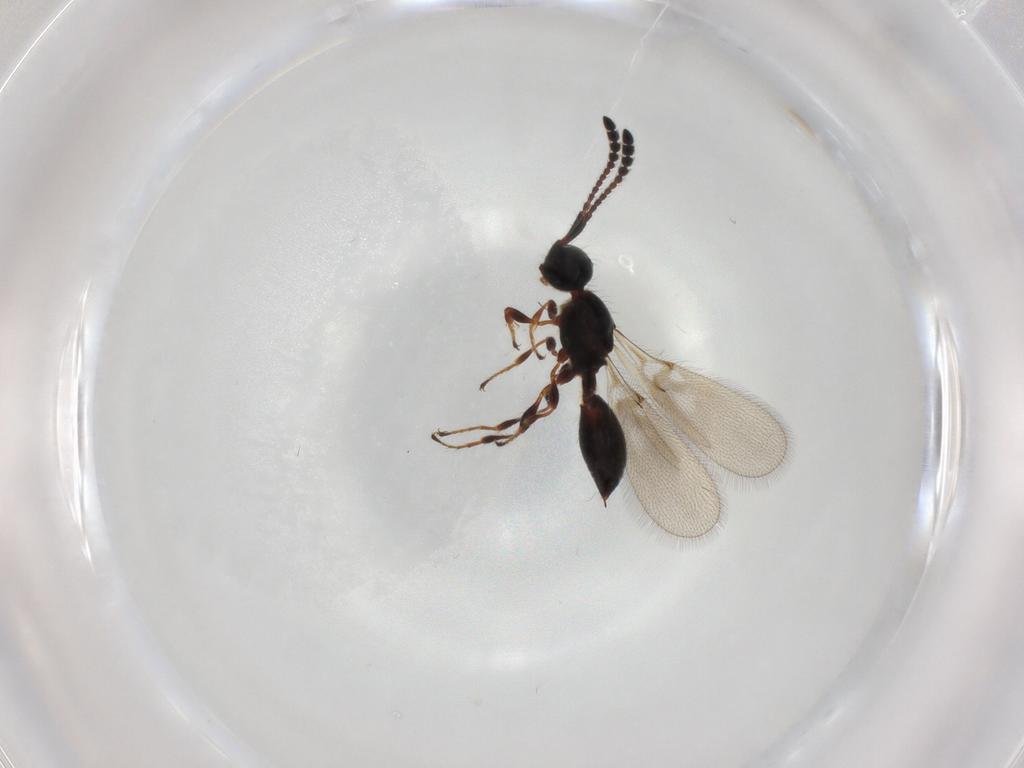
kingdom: Animalia
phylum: Arthropoda
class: Insecta
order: Hymenoptera
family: Diapriidae
